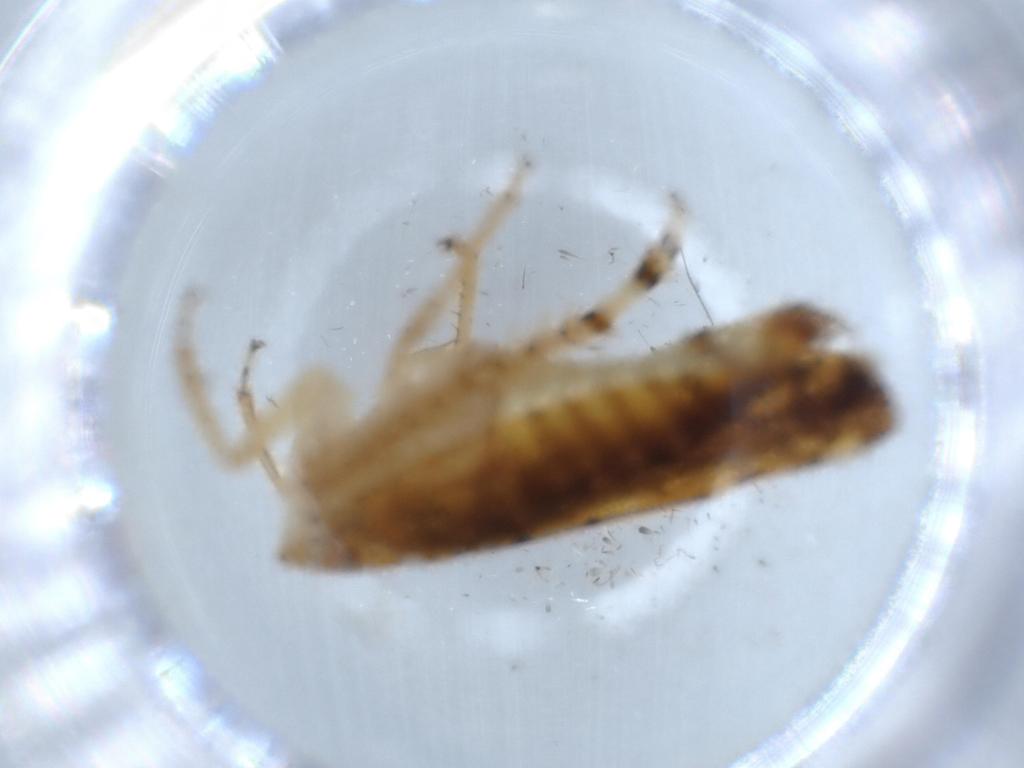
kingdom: Animalia
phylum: Arthropoda
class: Insecta
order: Hemiptera
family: Cicadellidae
